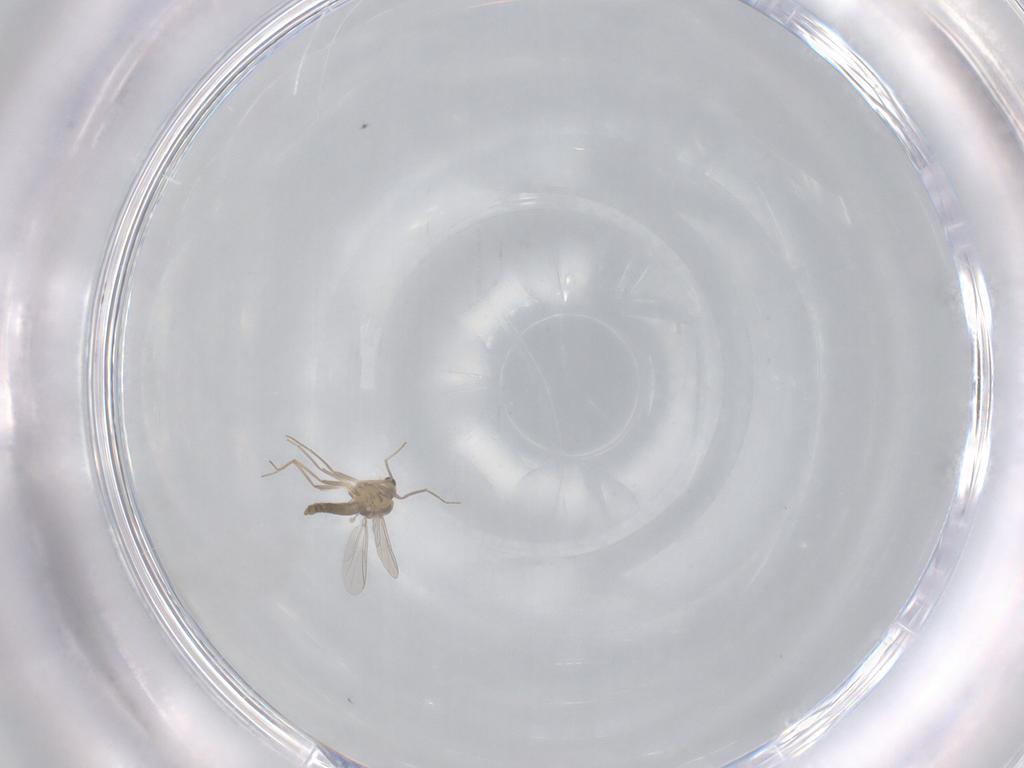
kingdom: Animalia
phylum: Arthropoda
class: Insecta
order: Diptera
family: Chironomidae
